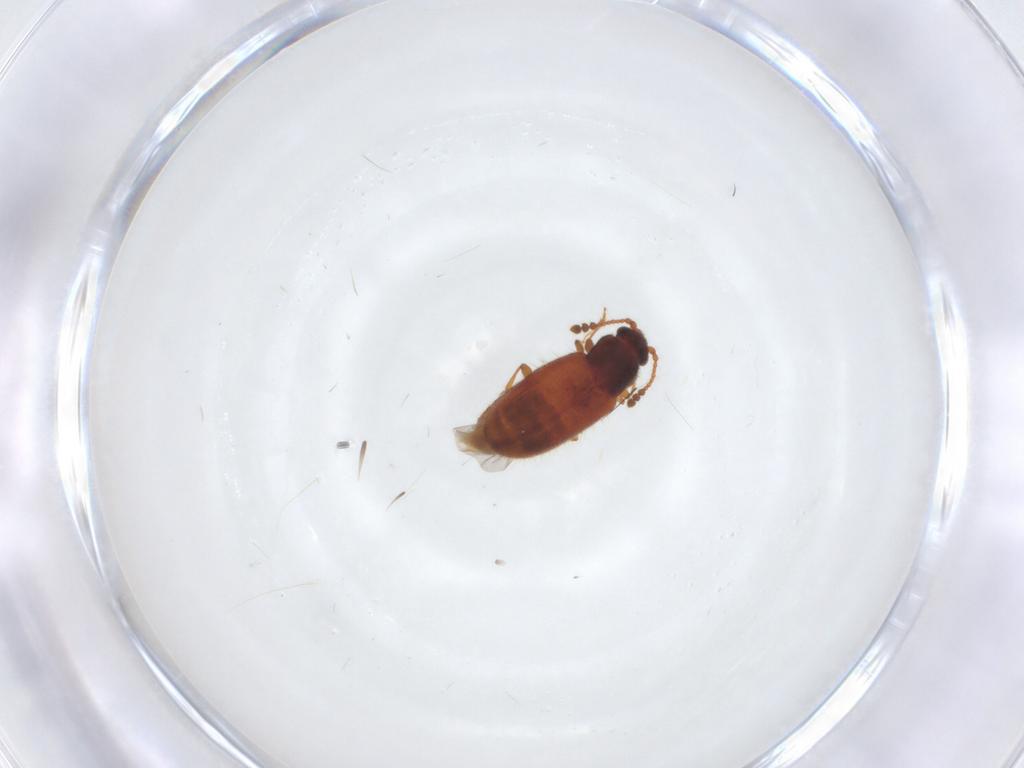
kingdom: Animalia
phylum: Arthropoda
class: Insecta
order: Coleoptera
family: Cryptophagidae
